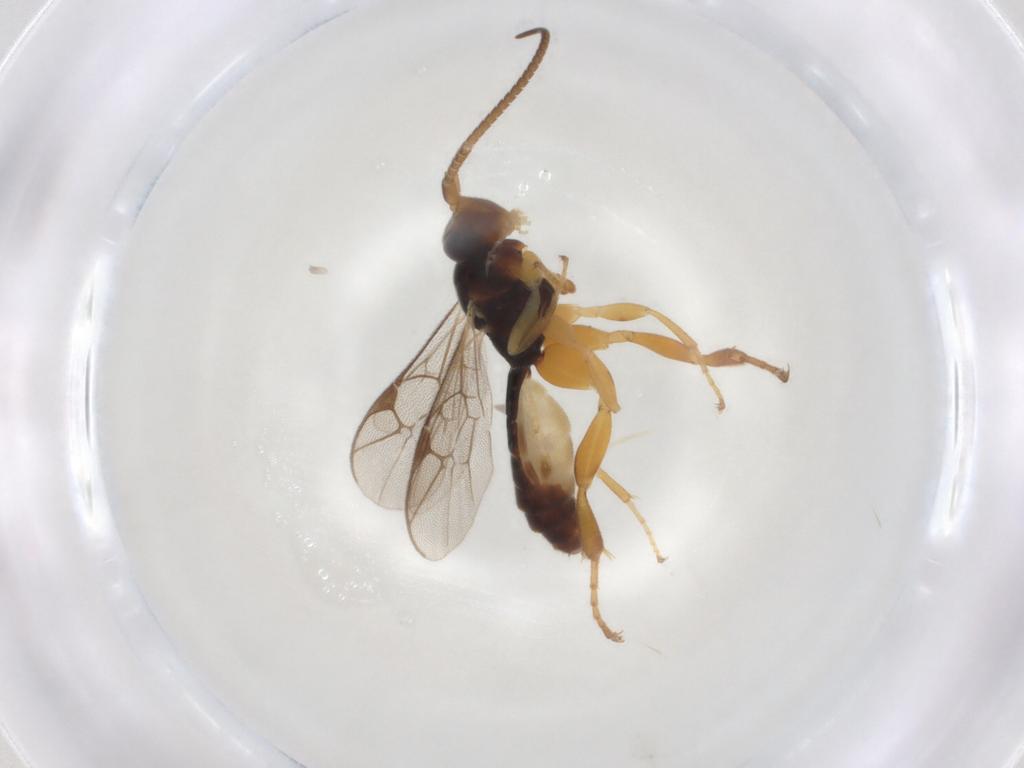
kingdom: Animalia
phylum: Arthropoda
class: Insecta
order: Hymenoptera
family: Ichneumonidae
